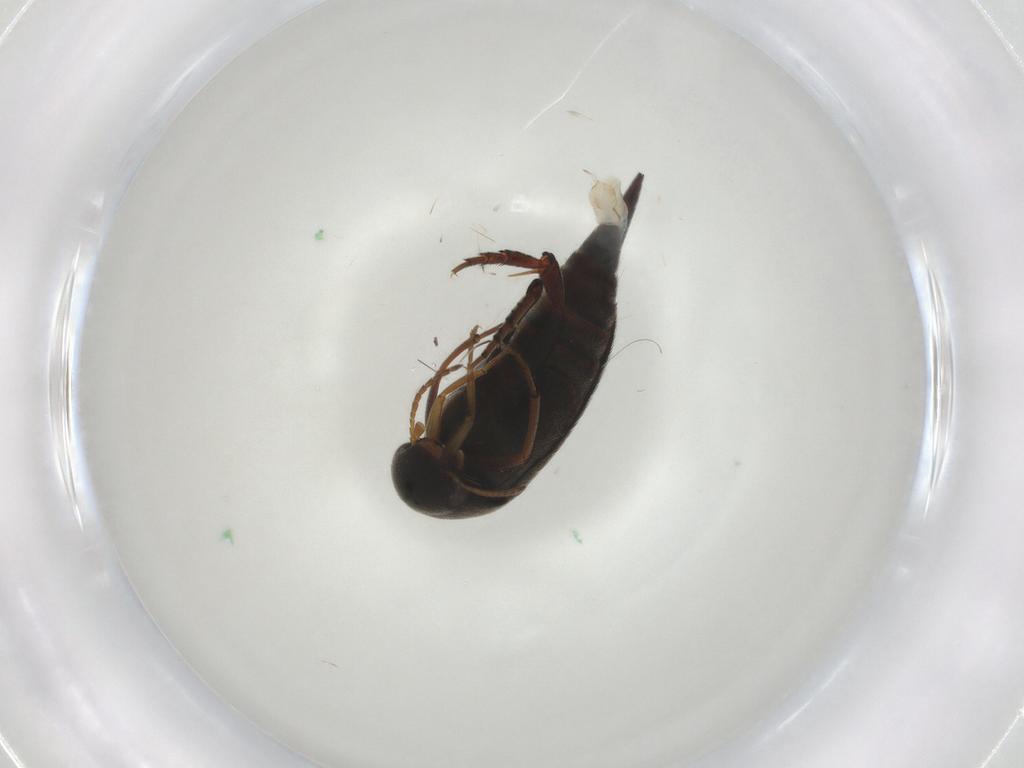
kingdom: Animalia
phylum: Arthropoda
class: Insecta
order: Coleoptera
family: Mordellidae
